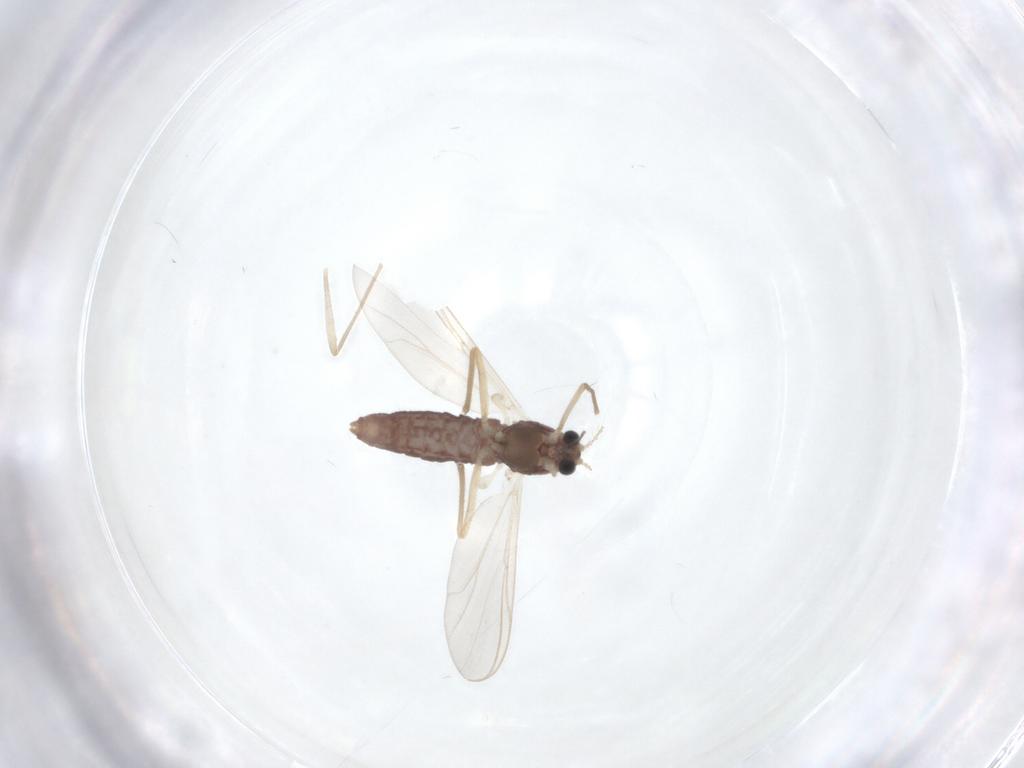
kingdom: Animalia
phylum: Arthropoda
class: Insecta
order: Diptera
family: Chironomidae
